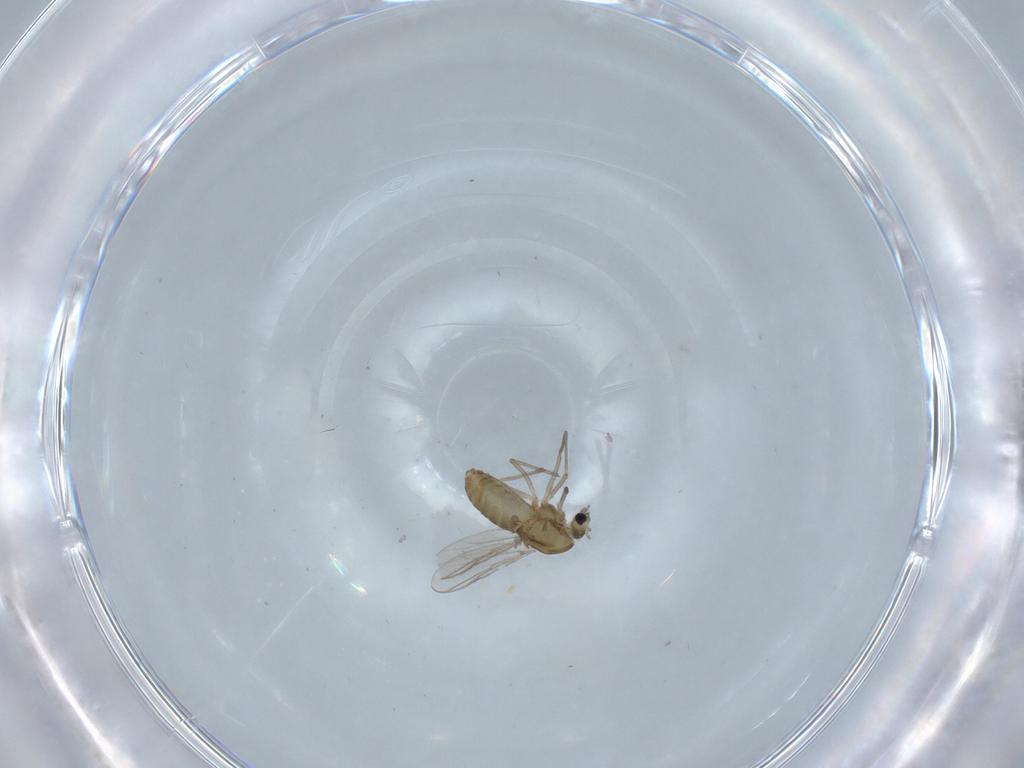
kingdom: Animalia
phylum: Arthropoda
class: Insecta
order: Diptera
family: Chironomidae
